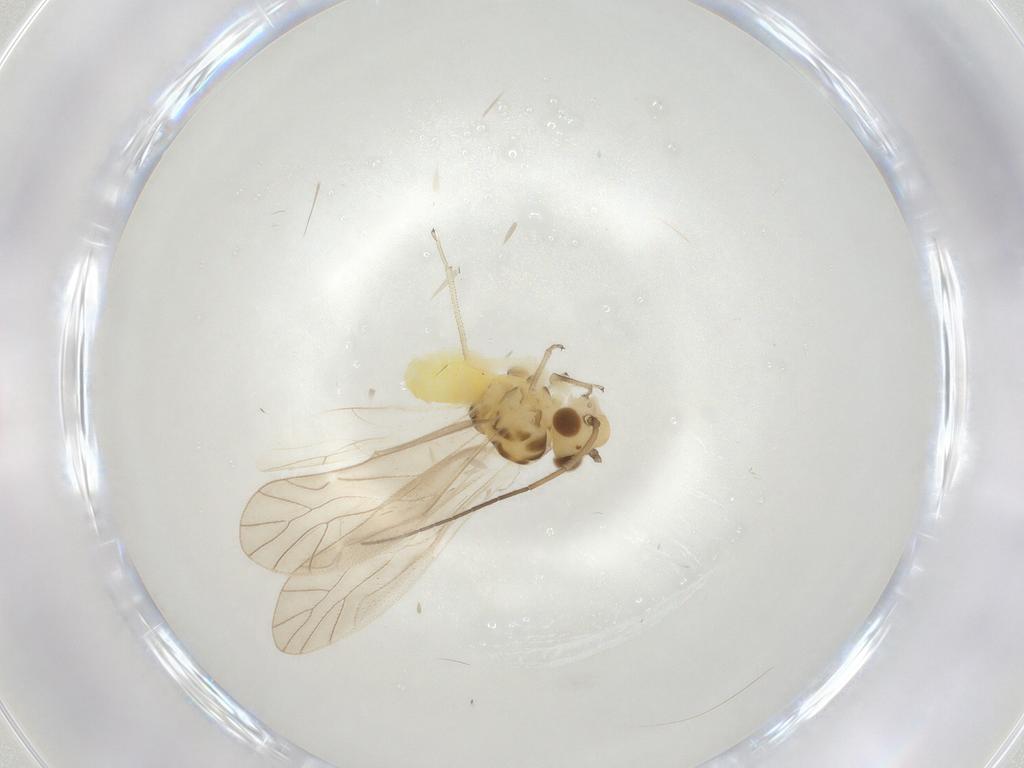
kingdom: Animalia
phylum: Arthropoda
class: Insecta
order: Psocodea
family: Caeciliusidae
